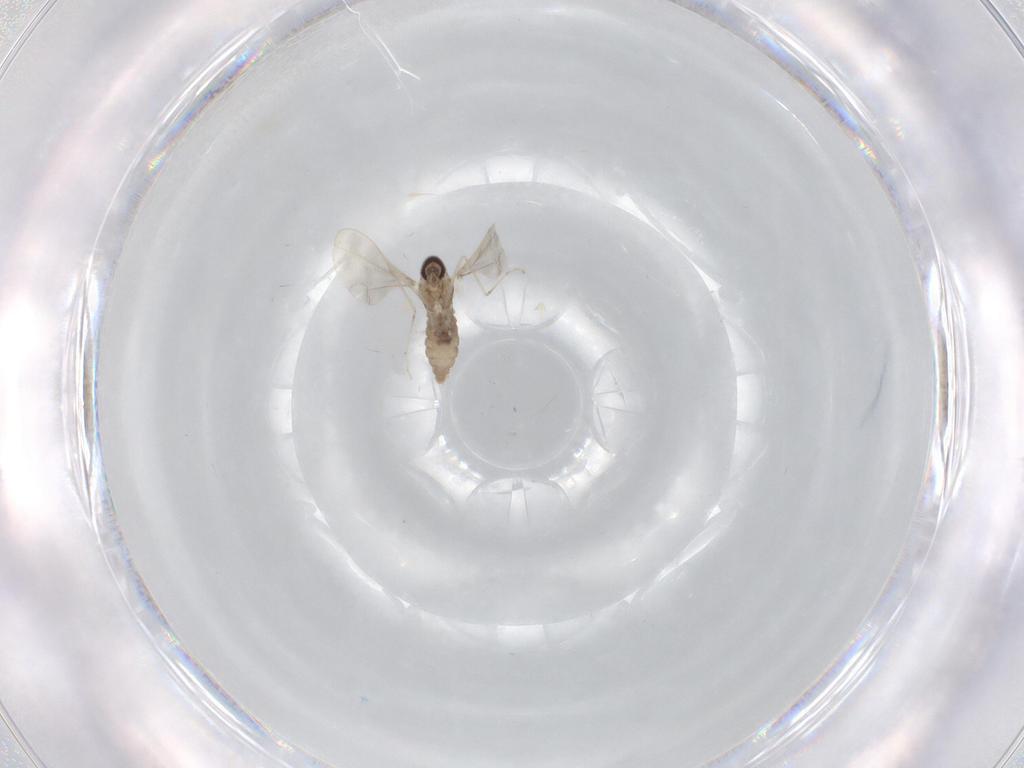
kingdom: Animalia
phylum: Arthropoda
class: Insecta
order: Diptera
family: Cecidomyiidae
